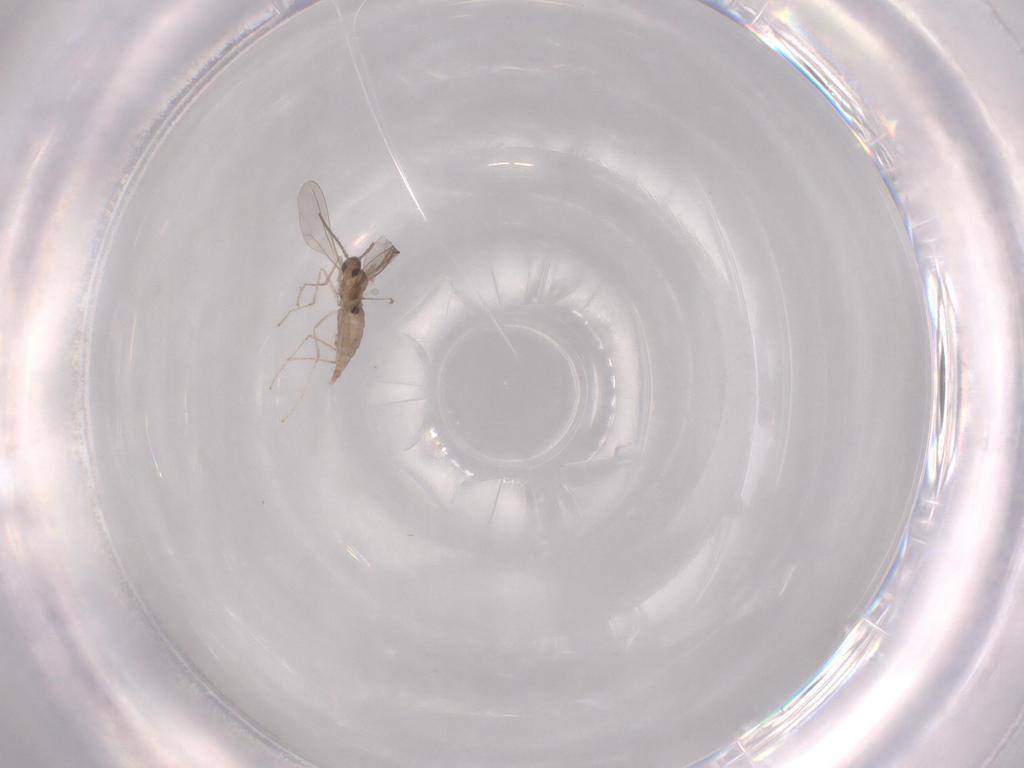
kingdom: Animalia
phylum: Arthropoda
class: Insecta
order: Diptera
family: Chironomidae
